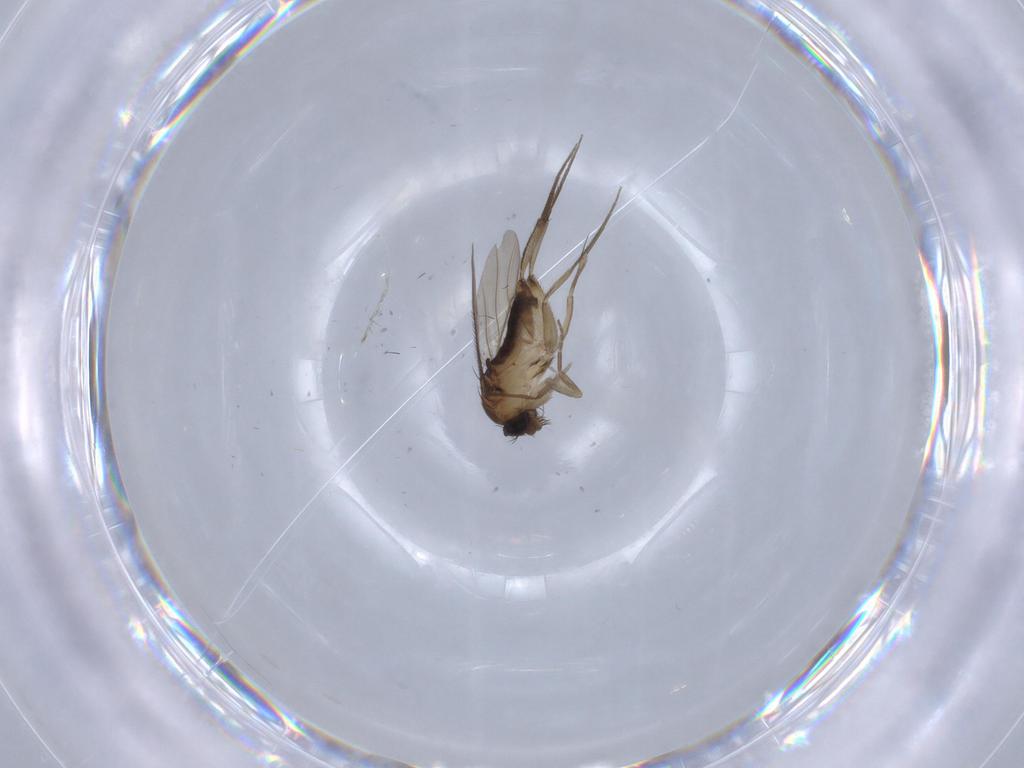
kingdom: Animalia
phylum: Arthropoda
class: Insecta
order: Diptera
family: Phoridae
